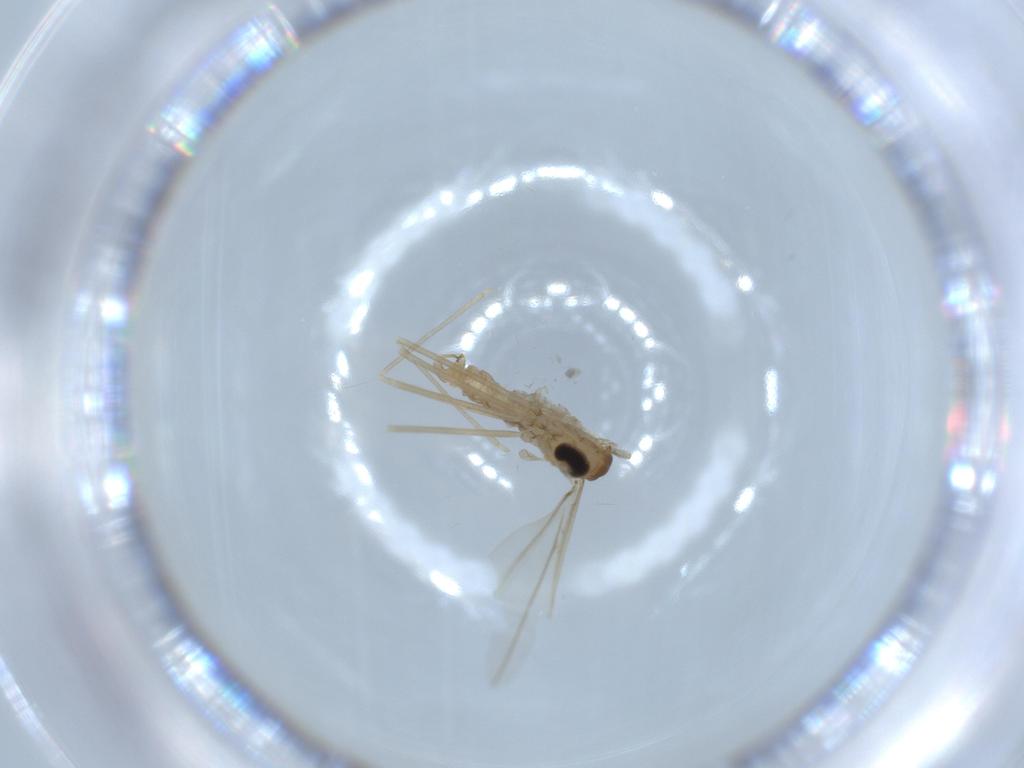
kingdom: Animalia
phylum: Arthropoda
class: Insecta
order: Diptera
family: Cecidomyiidae
